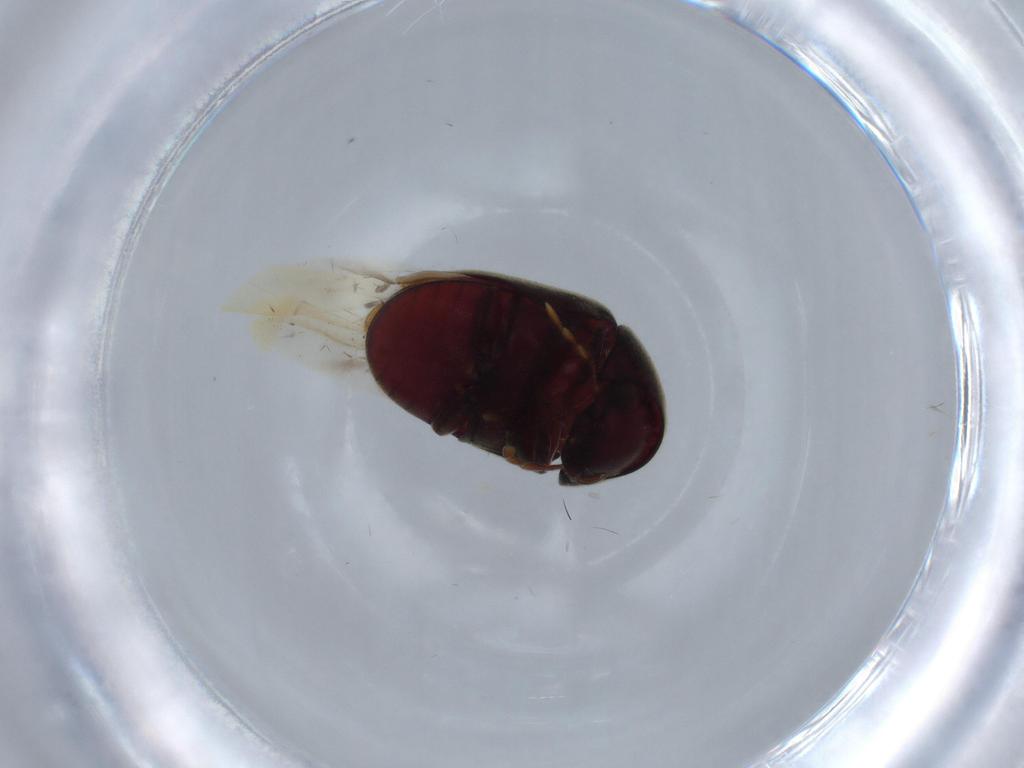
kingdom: Animalia
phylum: Arthropoda
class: Insecta
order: Coleoptera
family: Ptinidae
